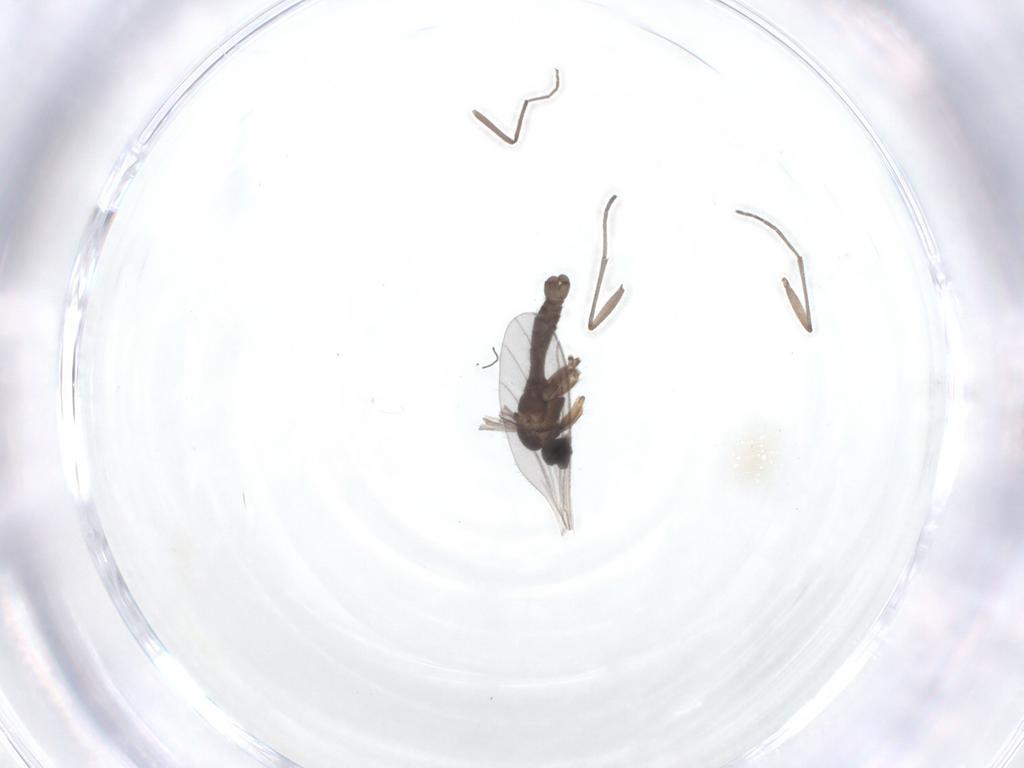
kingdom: Animalia
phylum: Arthropoda
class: Insecta
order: Diptera
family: Sciaridae
